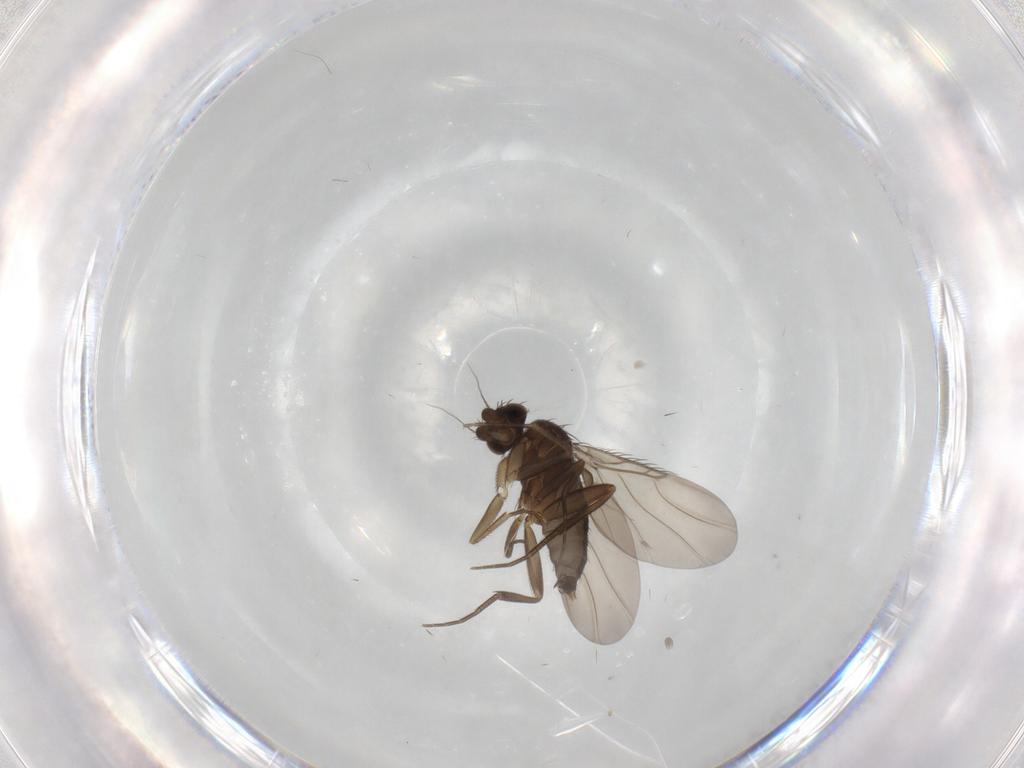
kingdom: Animalia
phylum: Arthropoda
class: Insecta
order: Diptera
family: Phoridae
